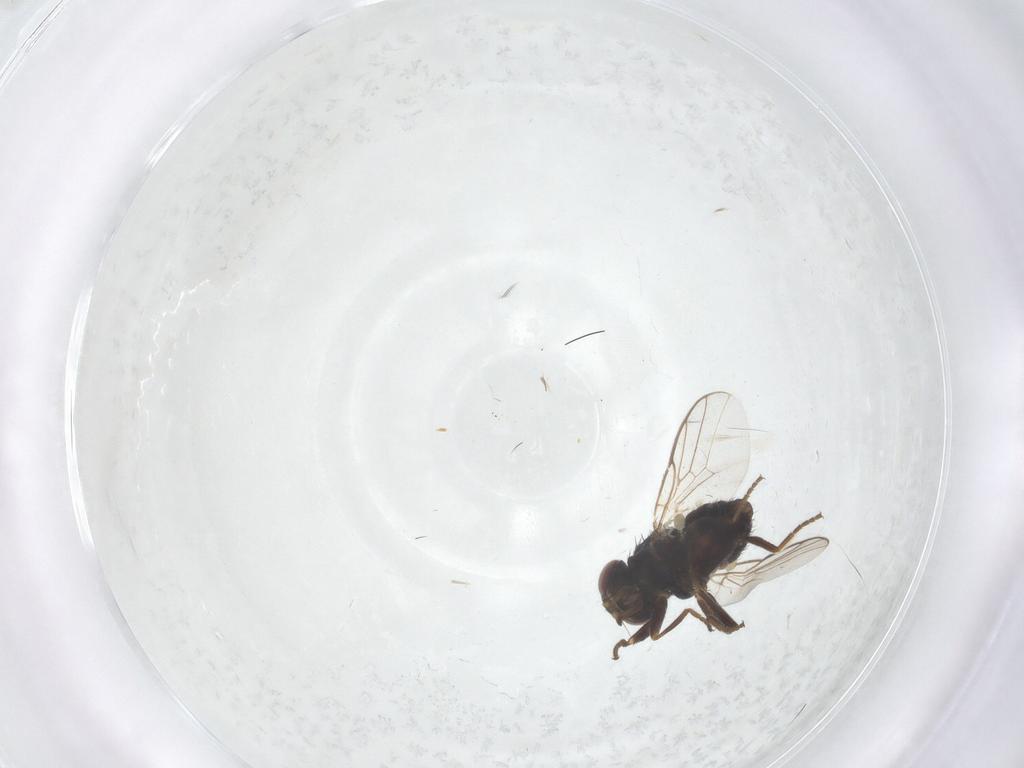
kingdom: Animalia
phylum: Arthropoda
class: Insecta
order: Diptera
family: Chloropidae
